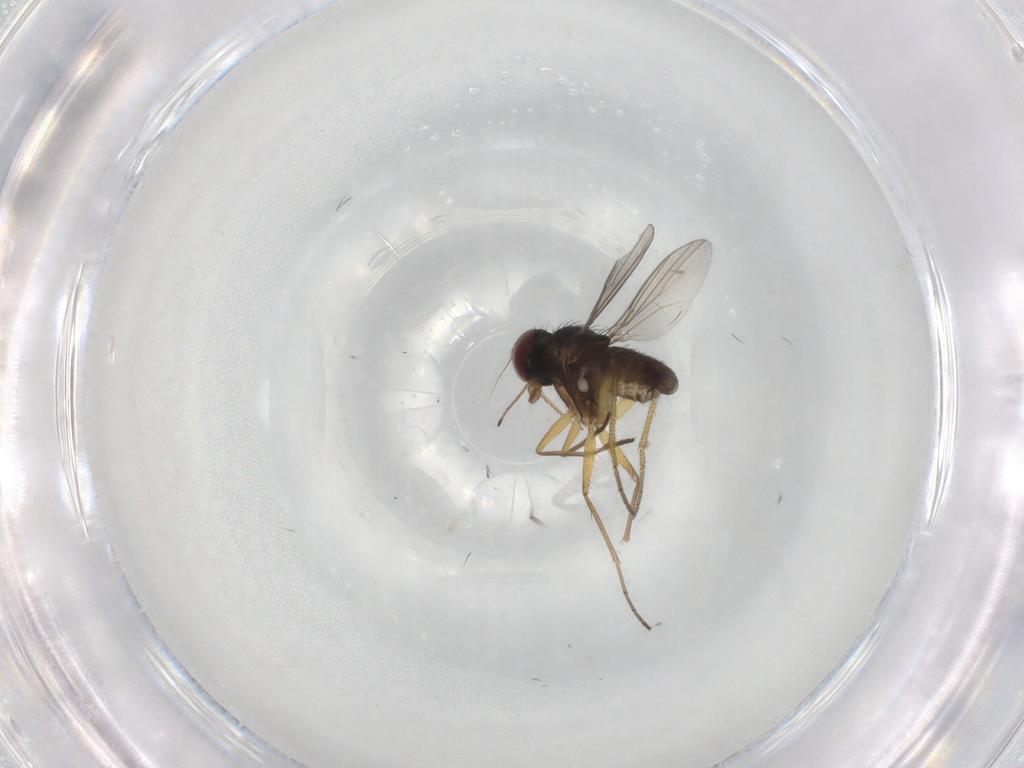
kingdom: Animalia
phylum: Arthropoda
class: Insecta
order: Diptera
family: Dolichopodidae
